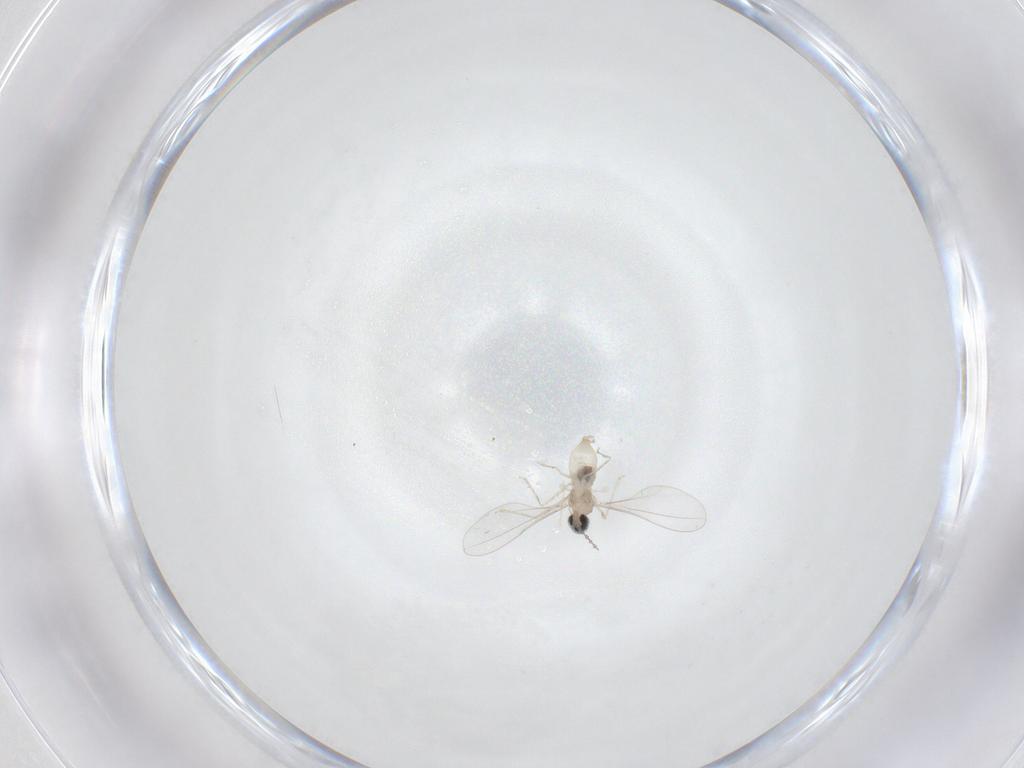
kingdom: Animalia
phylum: Arthropoda
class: Insecta
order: Diptera
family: Cecidomyiidae
